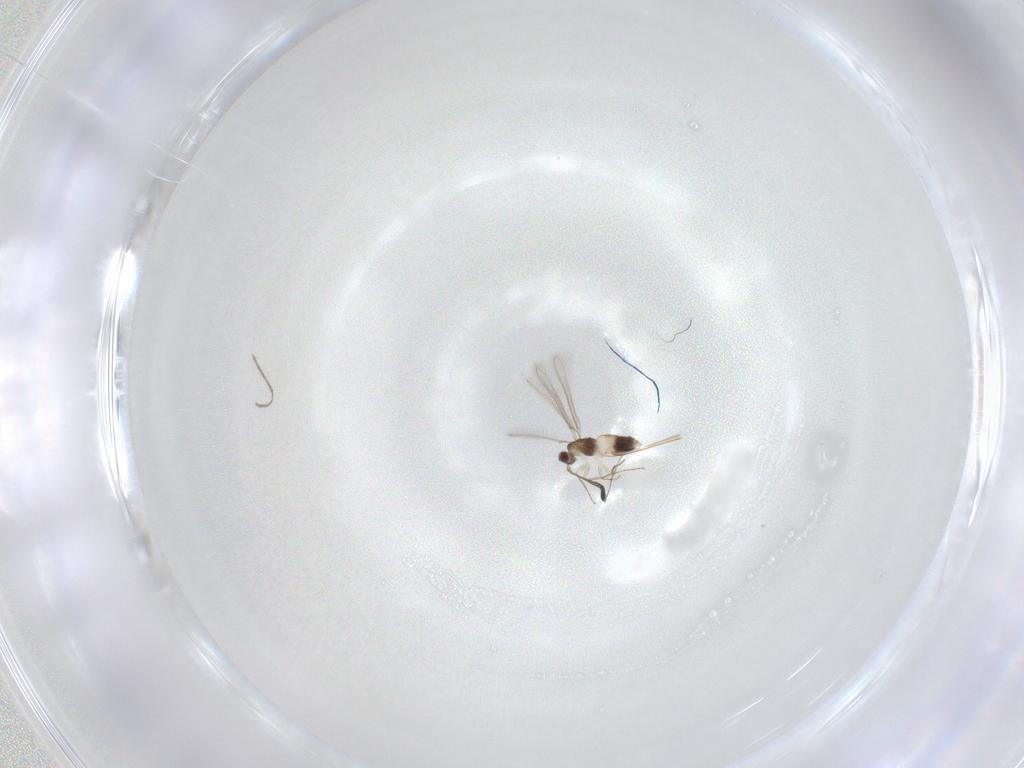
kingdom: Animalia
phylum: Arthropoda
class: Insecta
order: Hymenoptera
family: Mymaridae
